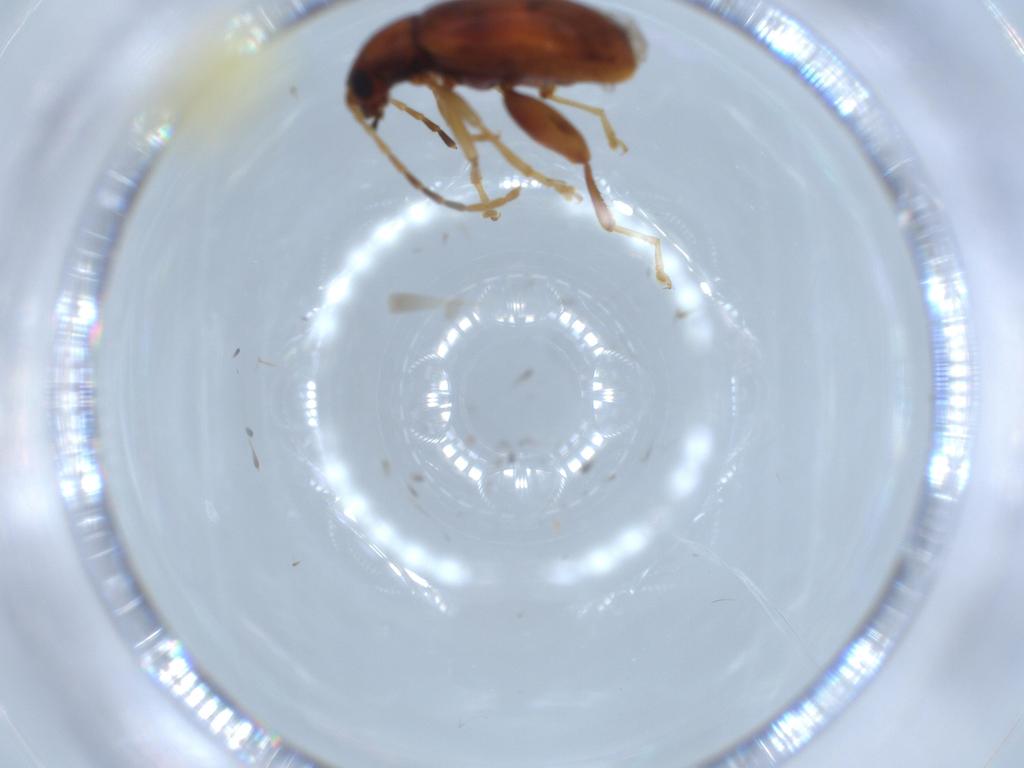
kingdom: Animalia
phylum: Arthropoda
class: Insecta
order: Coleoptera
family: Chrysomelidae
